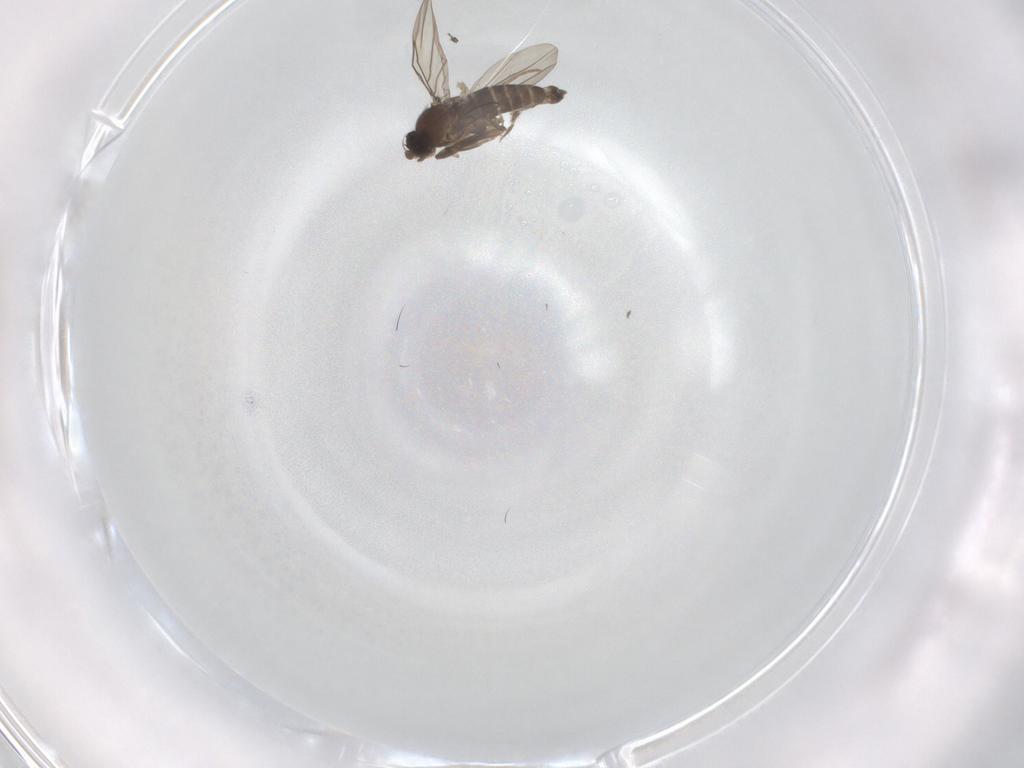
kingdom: Animalia
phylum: Arthropoda
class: Insecta
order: Diptera
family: Phoridae
